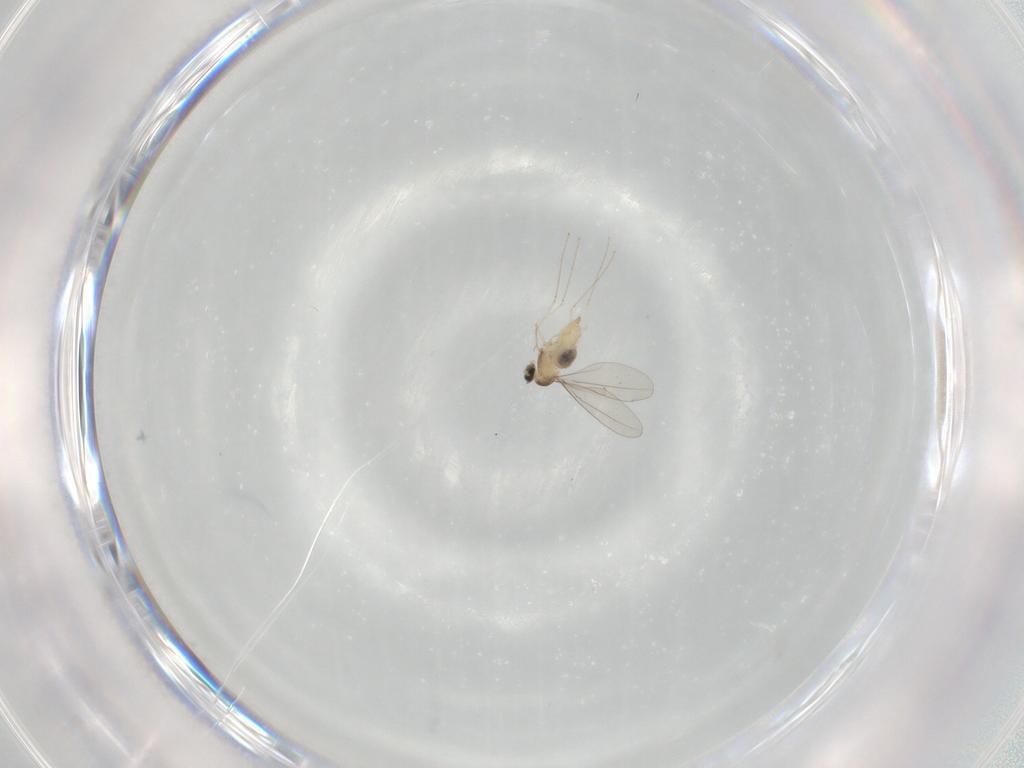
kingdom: Animalia
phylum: Arthropoda
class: Insecta
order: Diptera
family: Cecidomyiidae
